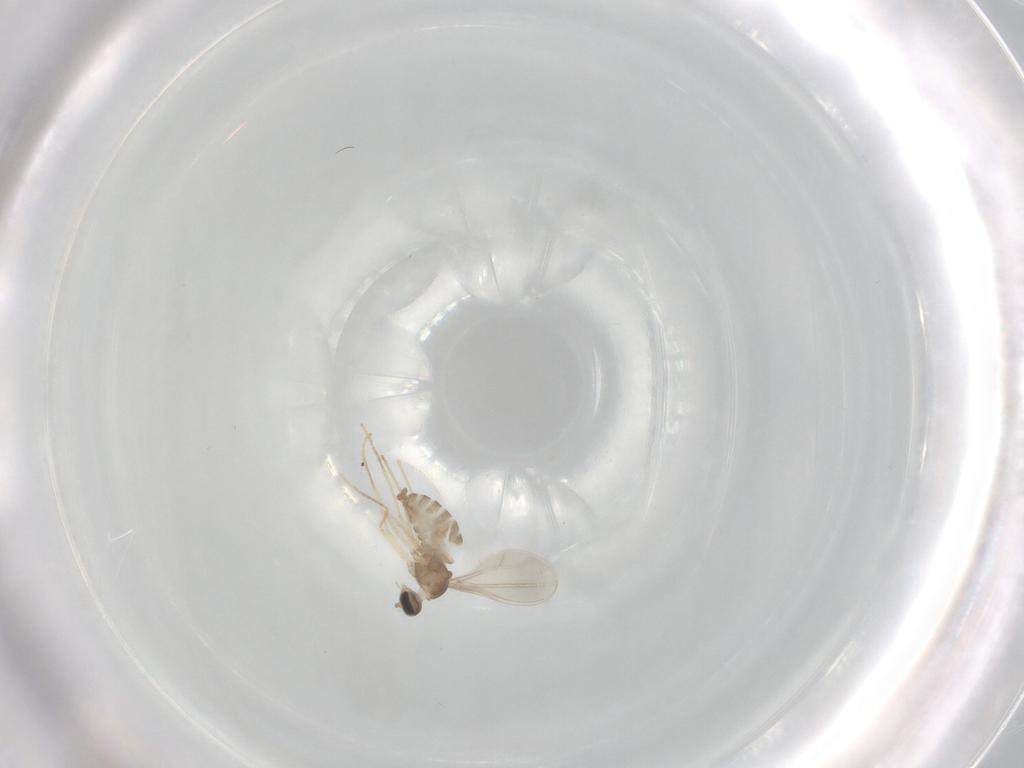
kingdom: Animalia
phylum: Arthropoda
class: Insecta
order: Diptera
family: Cecidomyiidae
